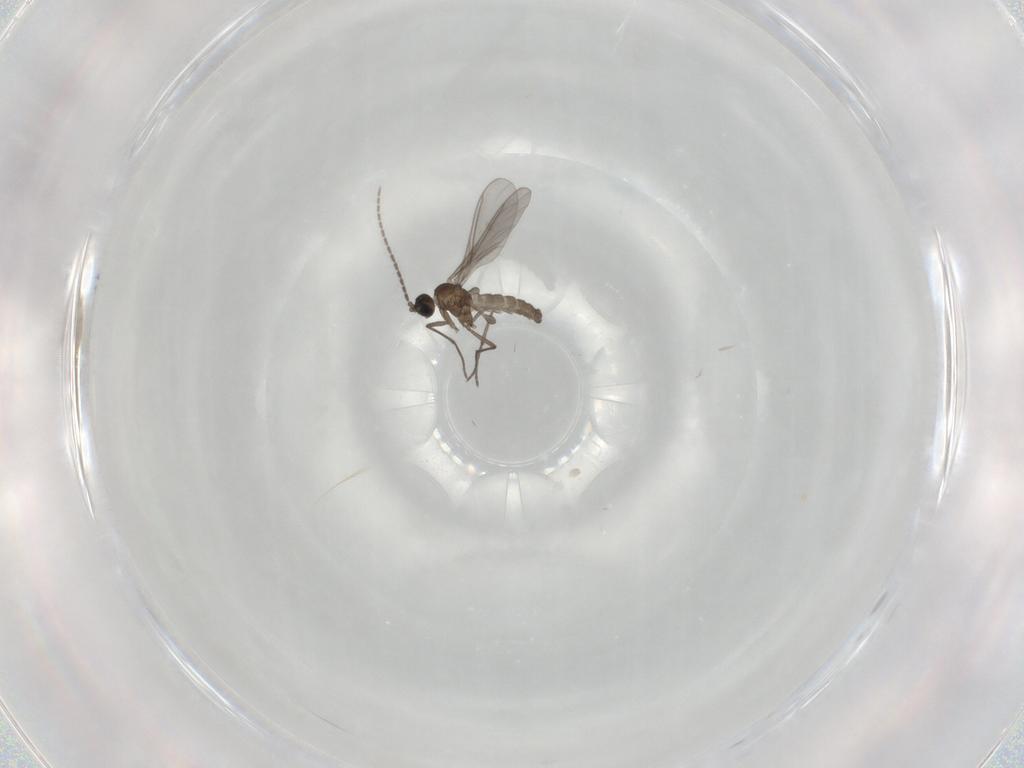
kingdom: Animalia
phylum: Arthropoda
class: Insecta
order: Diptera
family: Sciaridae
